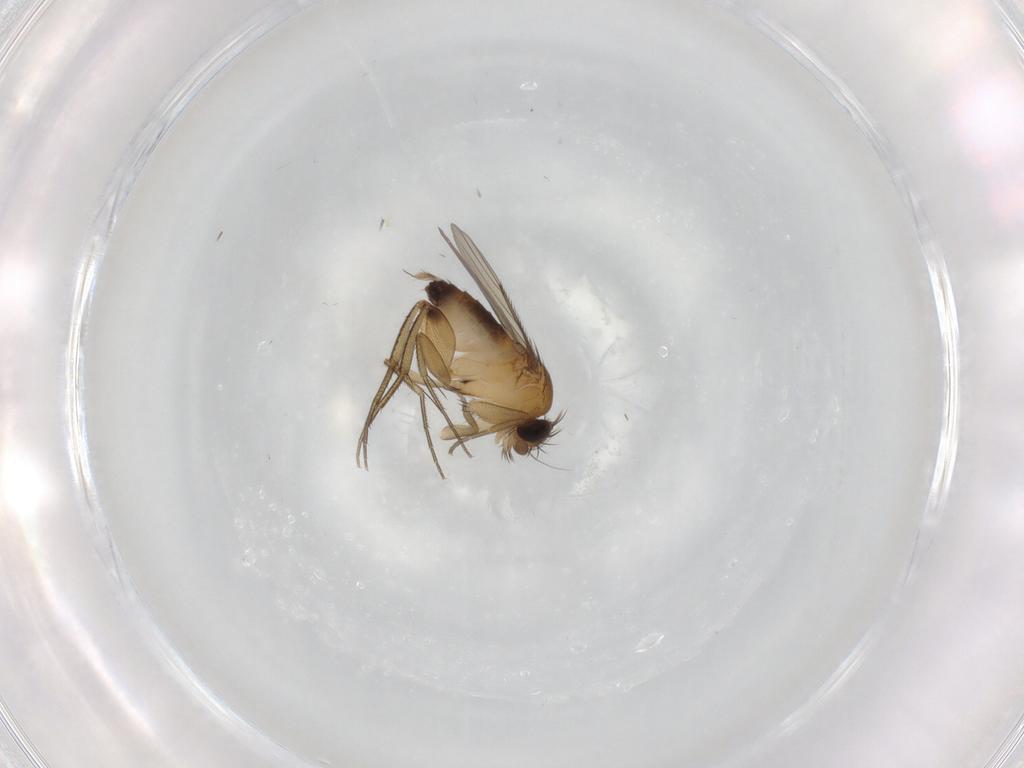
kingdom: Animalia
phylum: Arthropoda
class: Insecta
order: Diptera
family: Phoridae
